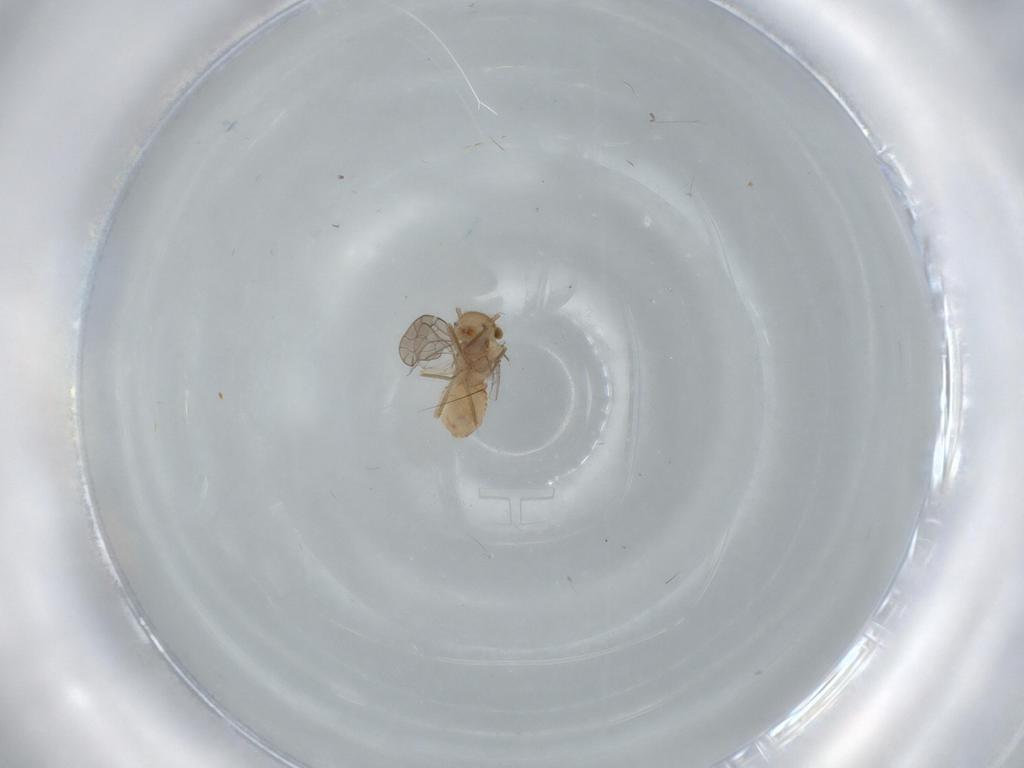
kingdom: Animalia
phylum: Arthropoda
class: Insecta
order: Psocodea
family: Ectopsocidae
